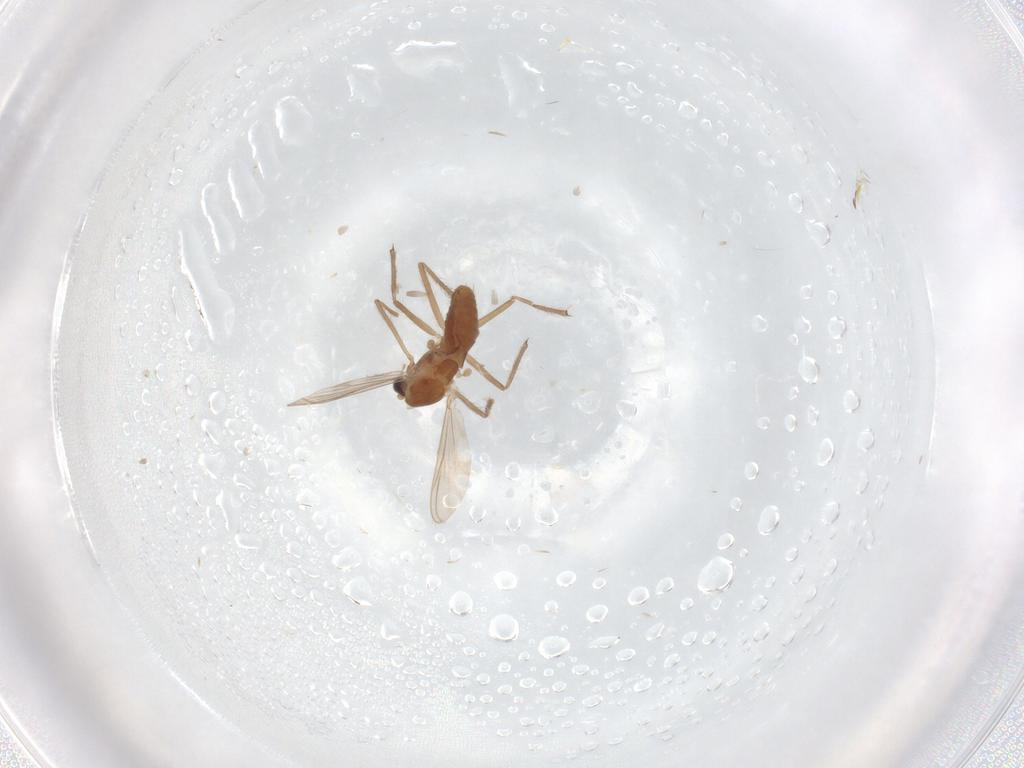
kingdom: Animalia
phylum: Arthropoda
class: Insecta
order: Diptera
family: Chironomidae
